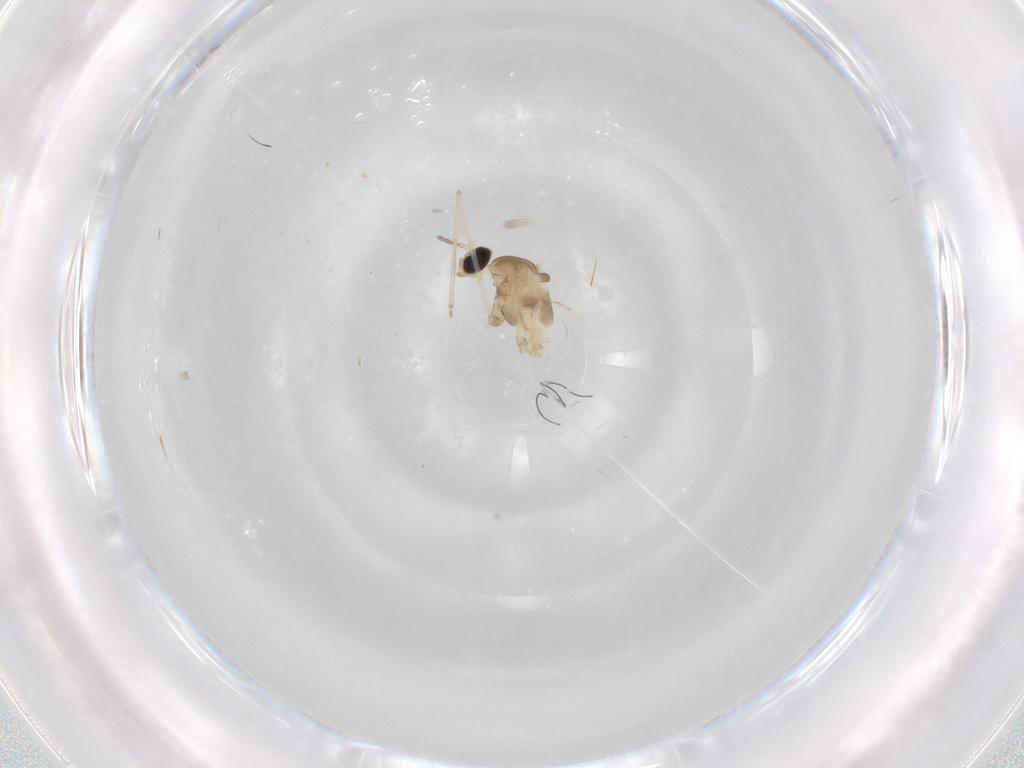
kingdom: Animalia
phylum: Arthropoda
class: Insecta
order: Diptera
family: Cecidomyiidae
